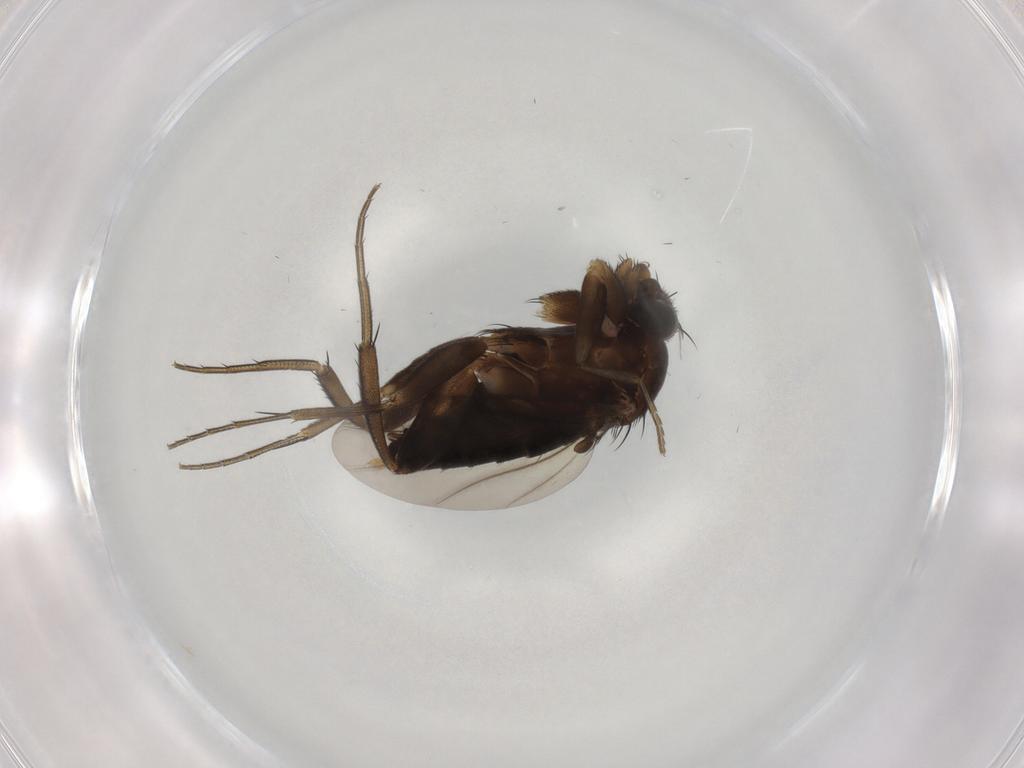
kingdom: Animalia
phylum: Arthropoda
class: Insecta
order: Diptera
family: Phoridae
